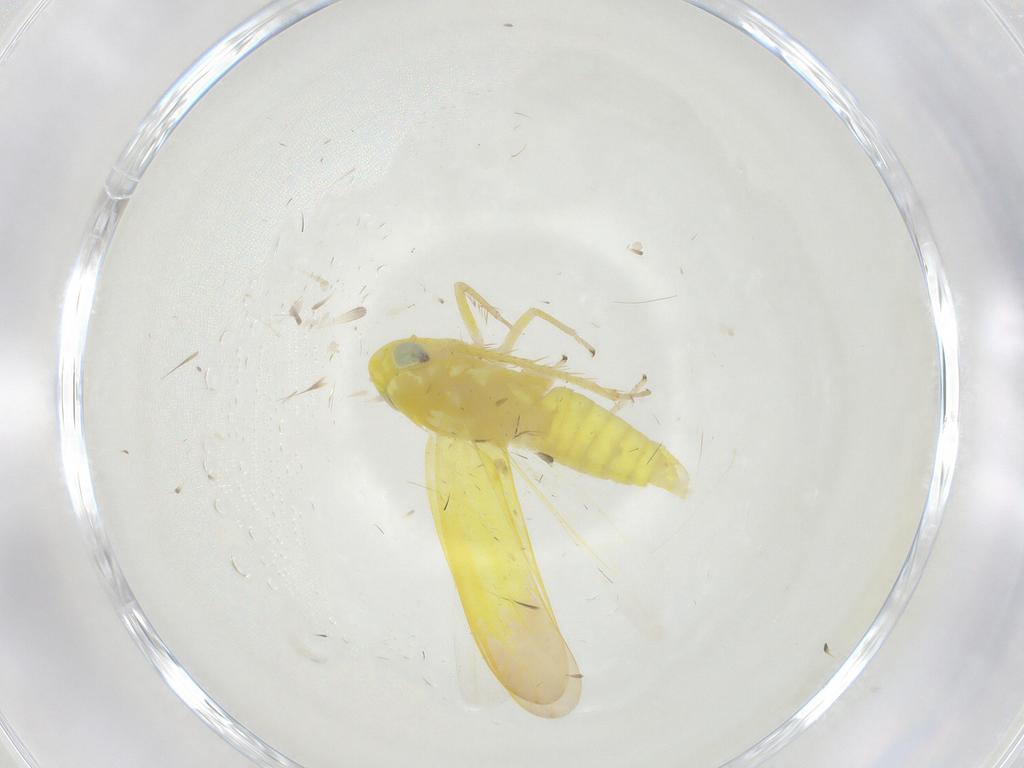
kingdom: Animalia
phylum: Arthropoda
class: Insecta
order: Hemiptera
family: Cicadellidae
